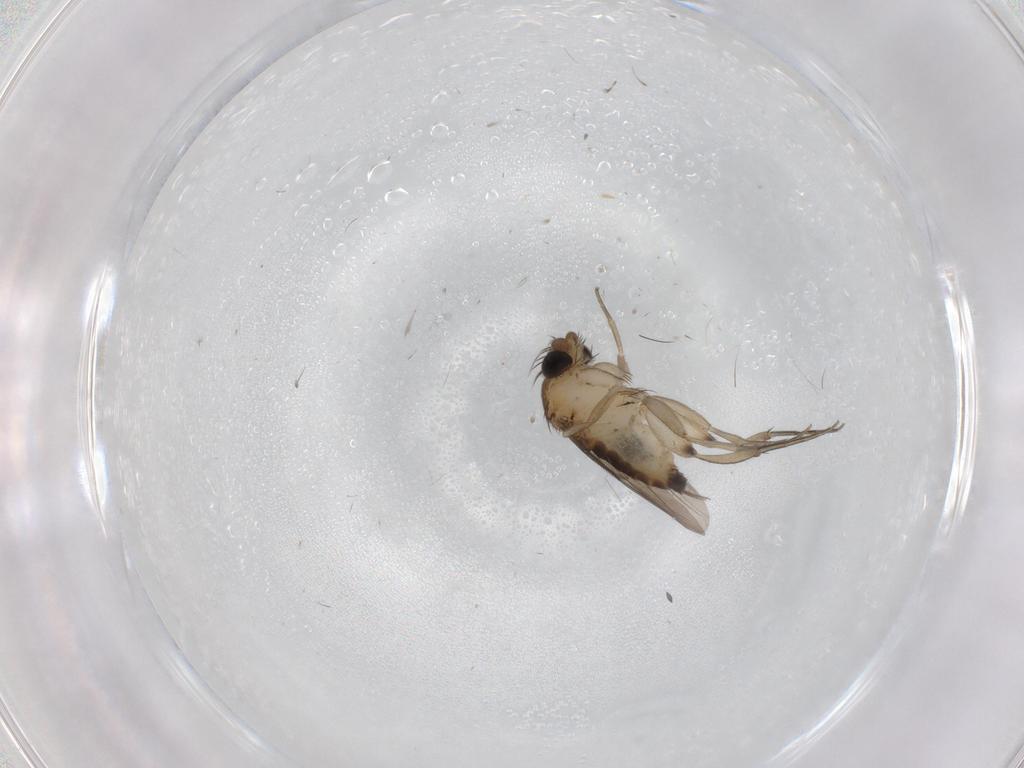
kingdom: Animalia
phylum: Arthropoda
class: Insecta
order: Diptera
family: Phoridae
